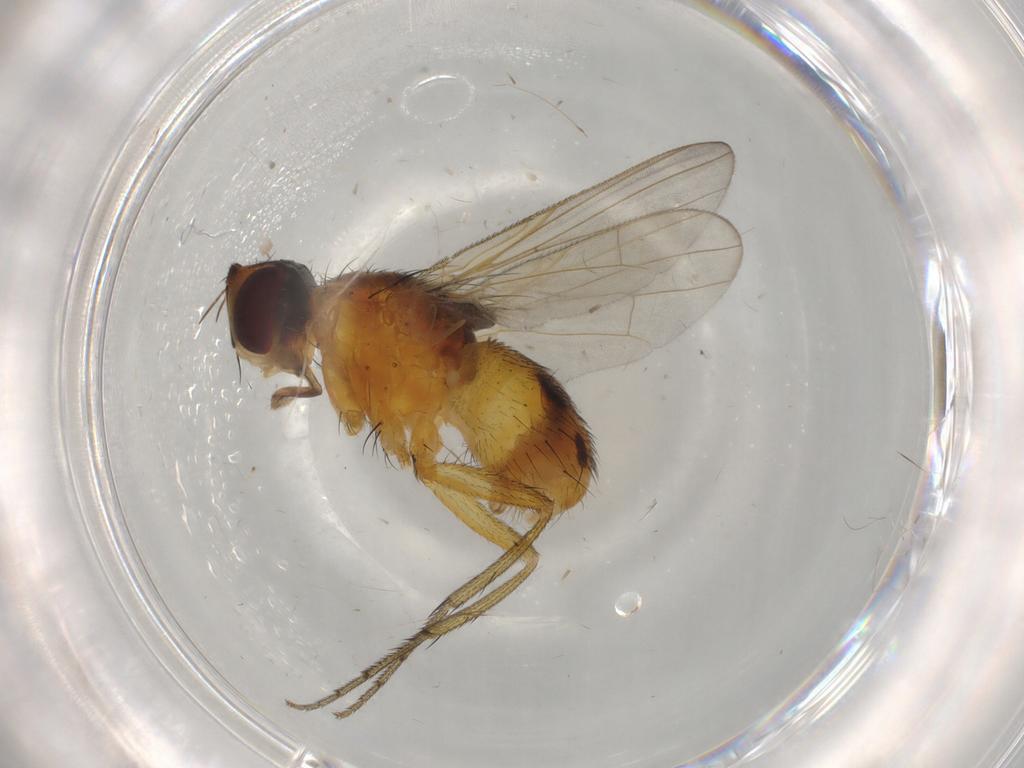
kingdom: Animalia
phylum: Arthropoda
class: Insecta
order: Diptera
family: Muscidae
